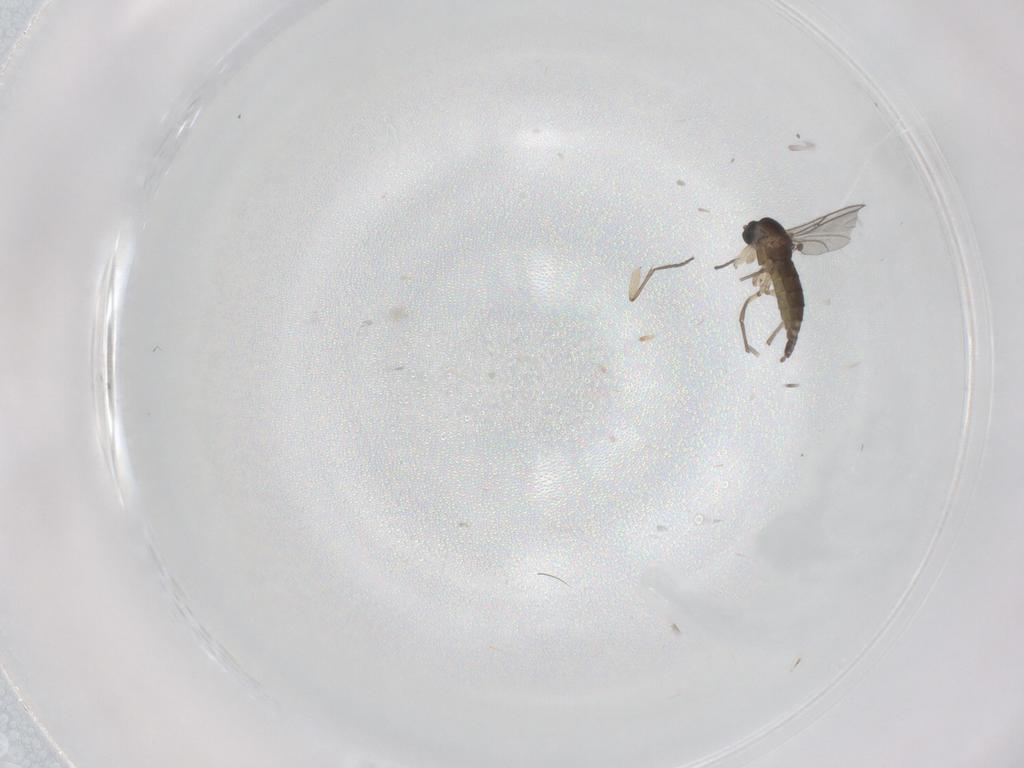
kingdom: Animalia
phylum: Arthropoda
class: Insecta
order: Diptera
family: Sciaridae
